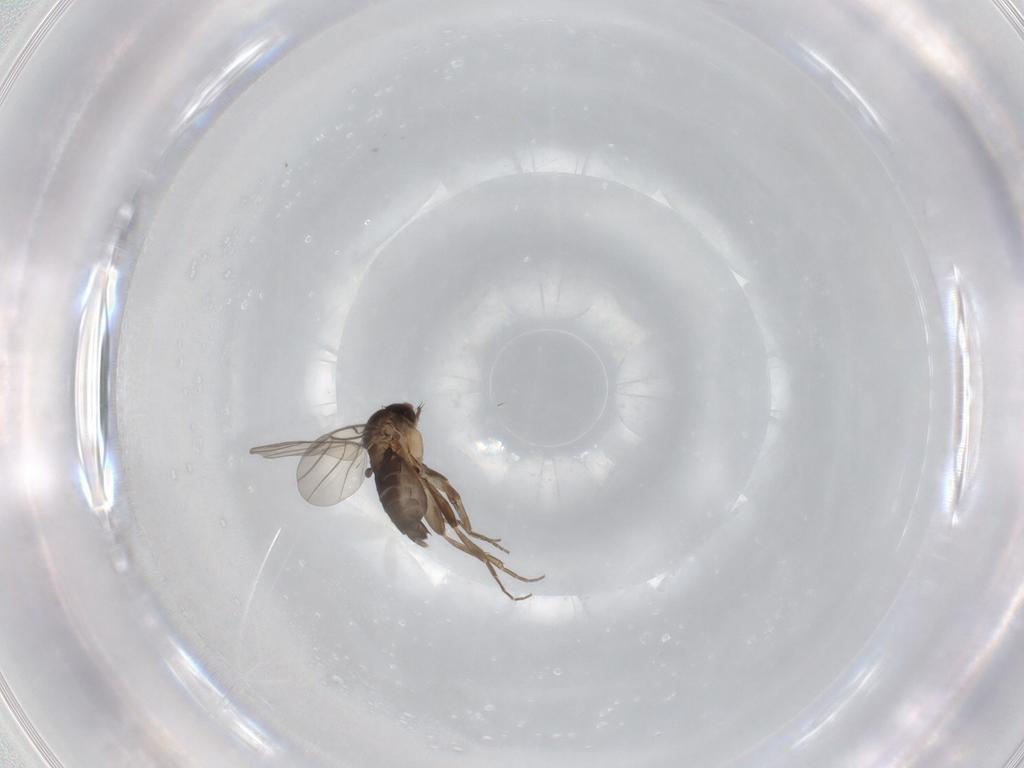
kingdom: Animalia
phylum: Arthropoda
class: Insecta
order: Diptera
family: Phoridae
